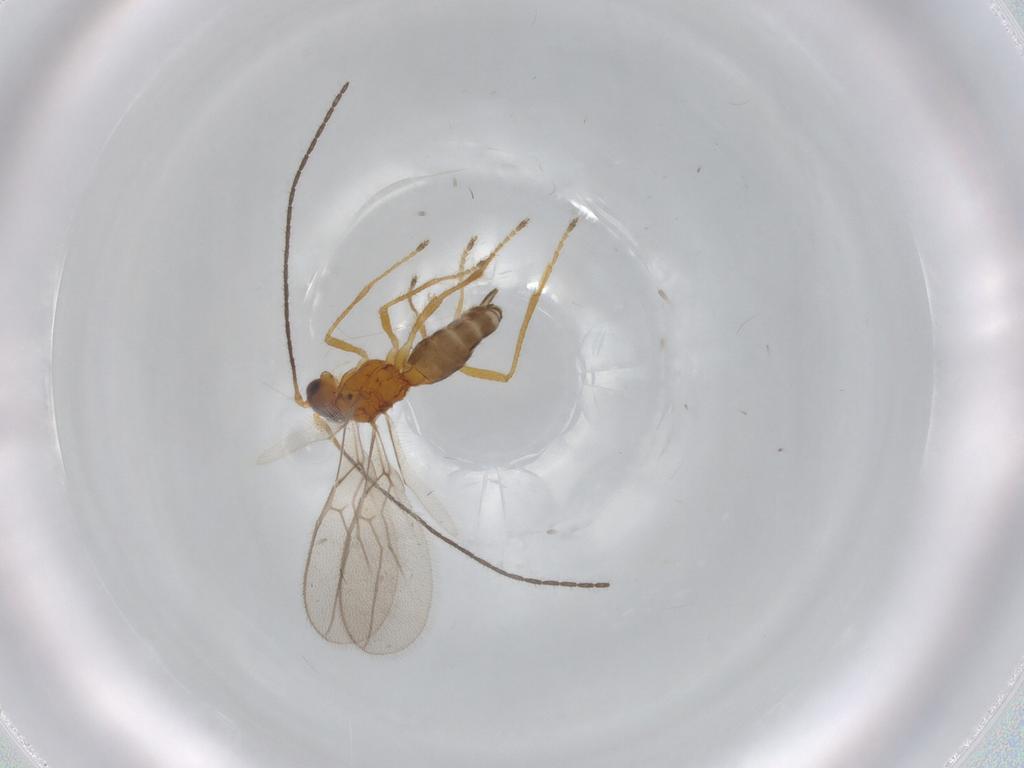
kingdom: Animalia
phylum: Arthropoda
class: Insecta
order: Hymenoptera
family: Braconidae
